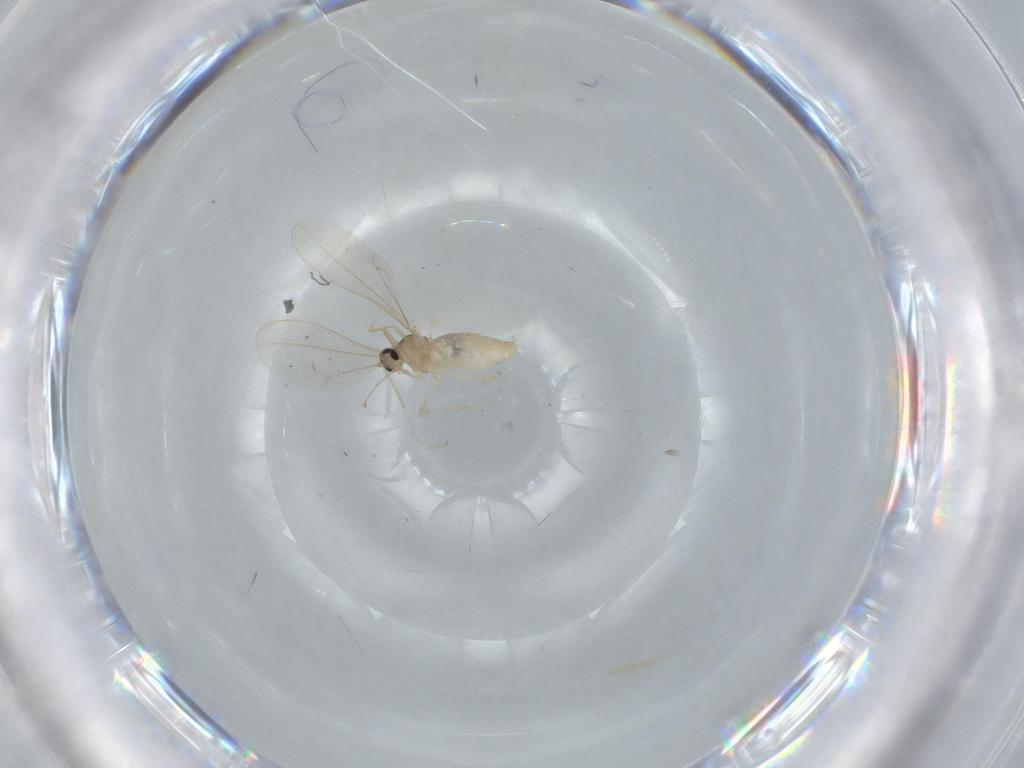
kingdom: Animalia
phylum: Arthropoda
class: Insecta
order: Diptera
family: Cecidomyiidae
